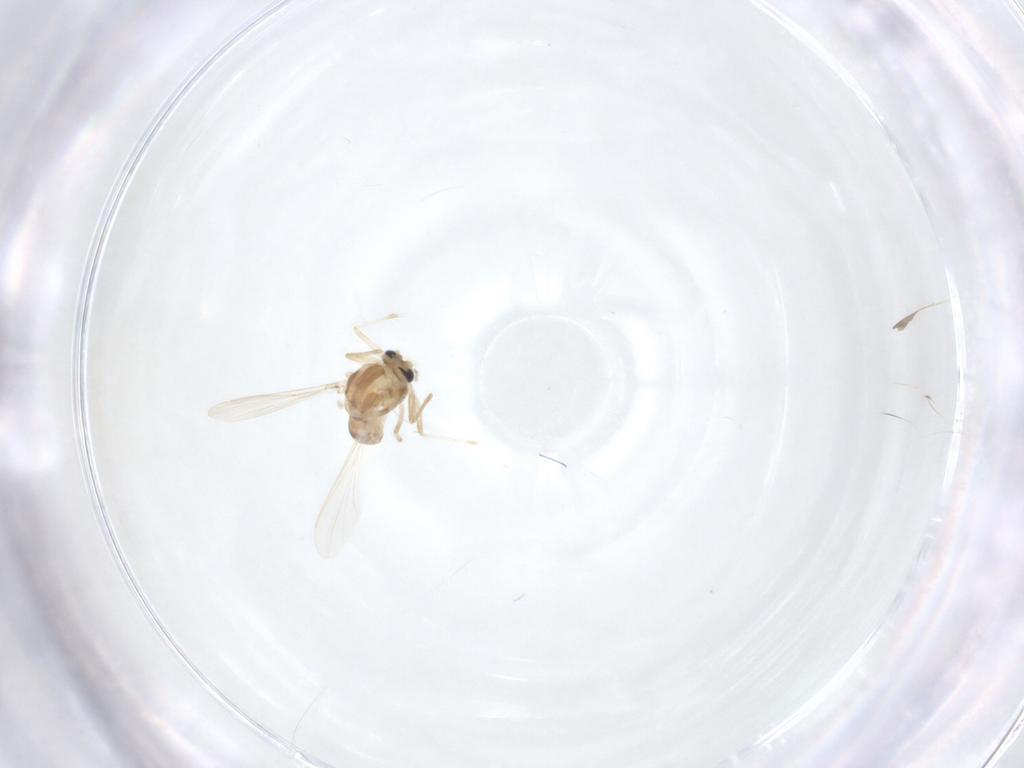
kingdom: Animalia
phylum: Arthropoda
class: Insecta
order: Diptera
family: Chironomidae
